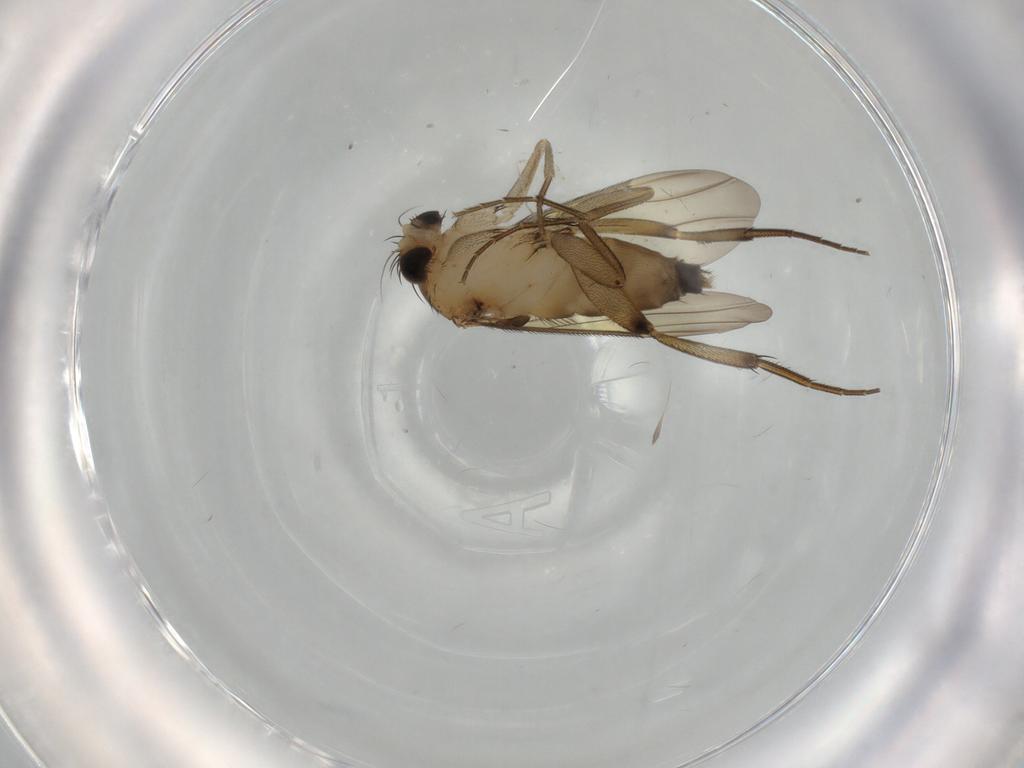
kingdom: Animalia
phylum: Arthropoda
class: Insecta
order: Diptera
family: Phoridae
